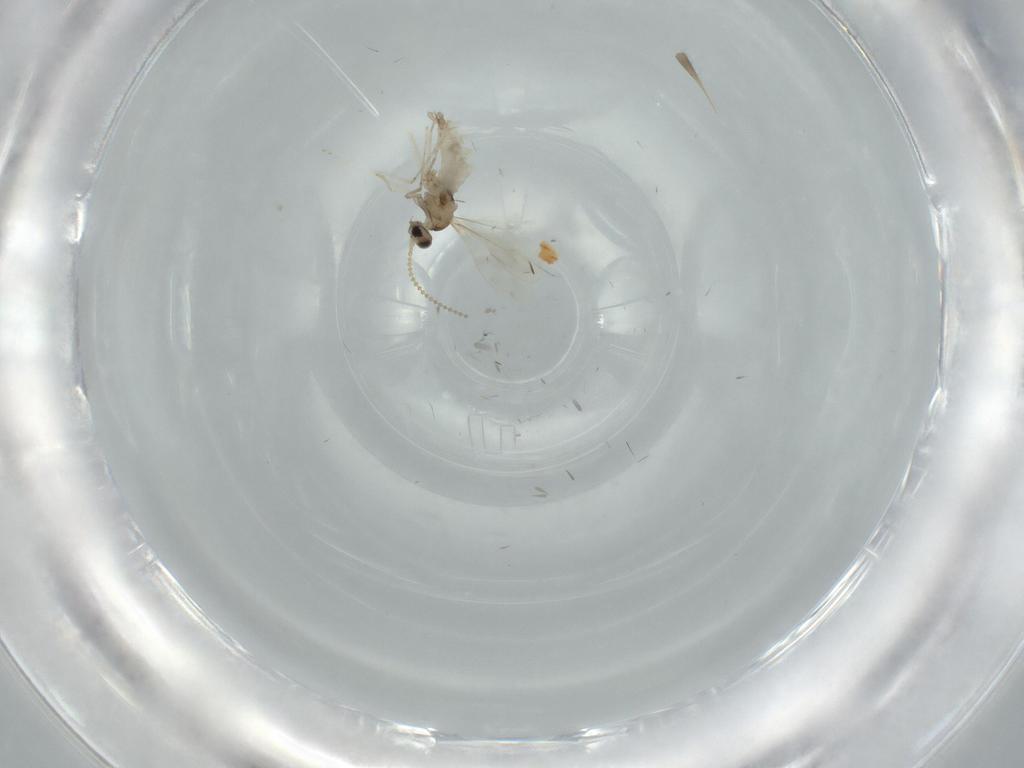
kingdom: Animalia
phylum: Arthropoda
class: Insecta
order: Diptera
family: Cecidomyiidae
